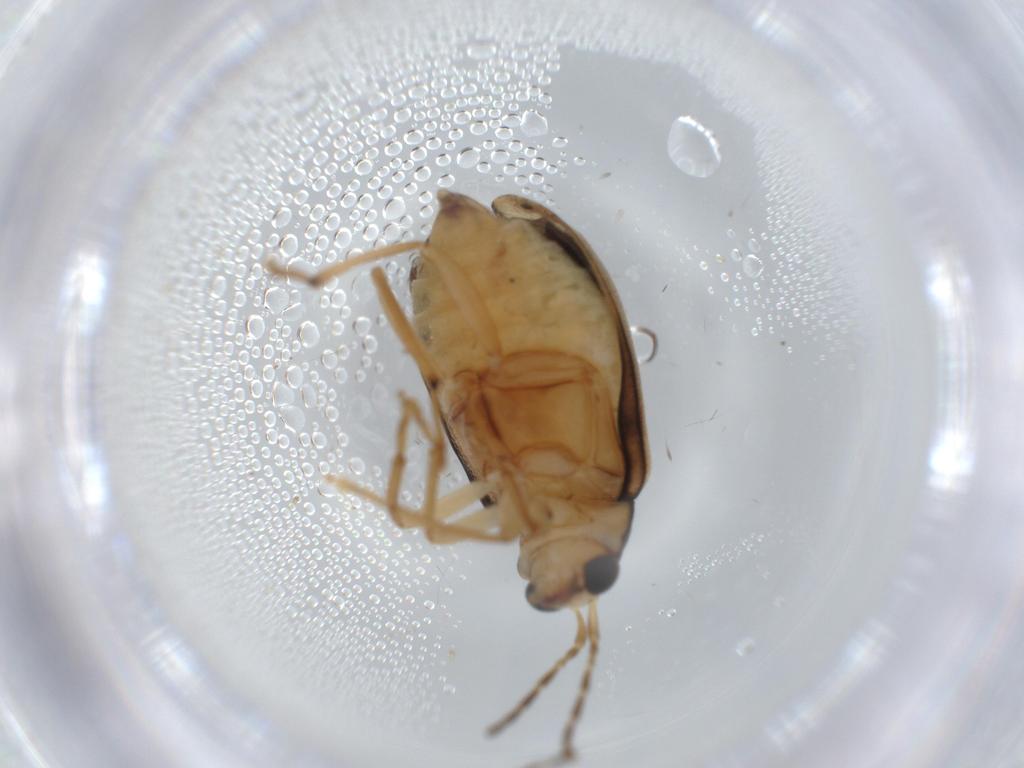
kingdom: Animalia
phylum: Arthropoda
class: Insecta
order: Coleoptera
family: Chrysomelidae
